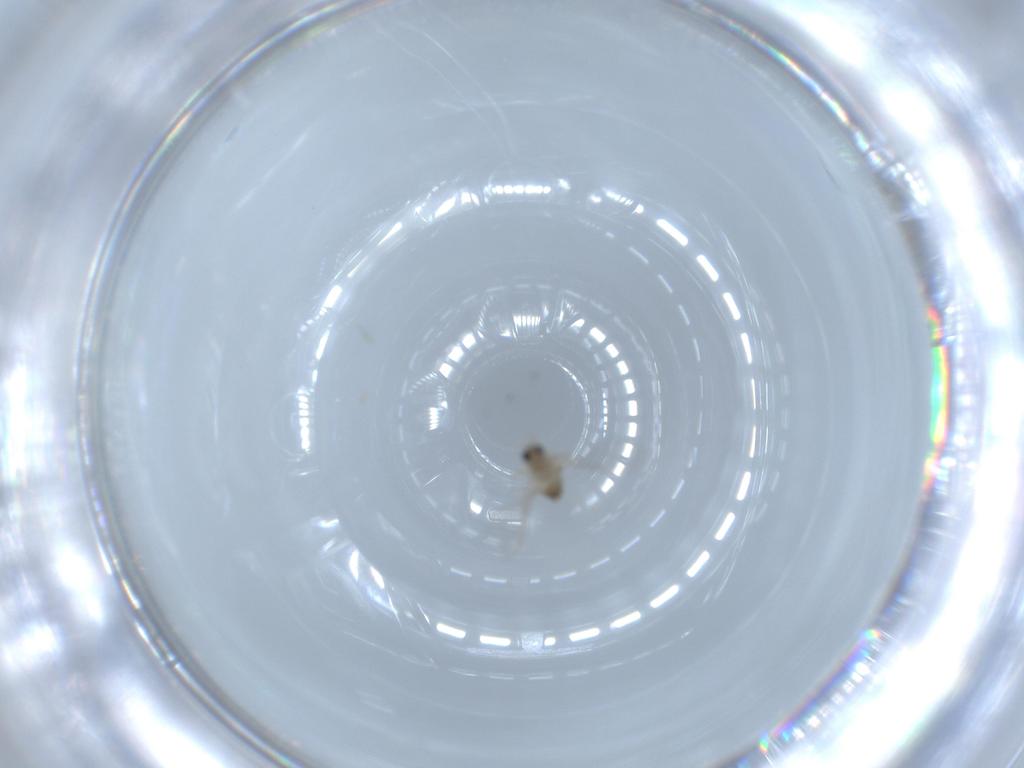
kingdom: Animalia
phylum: Arthropoda
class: Insecta
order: Diptera
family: Cecidomyiidae
